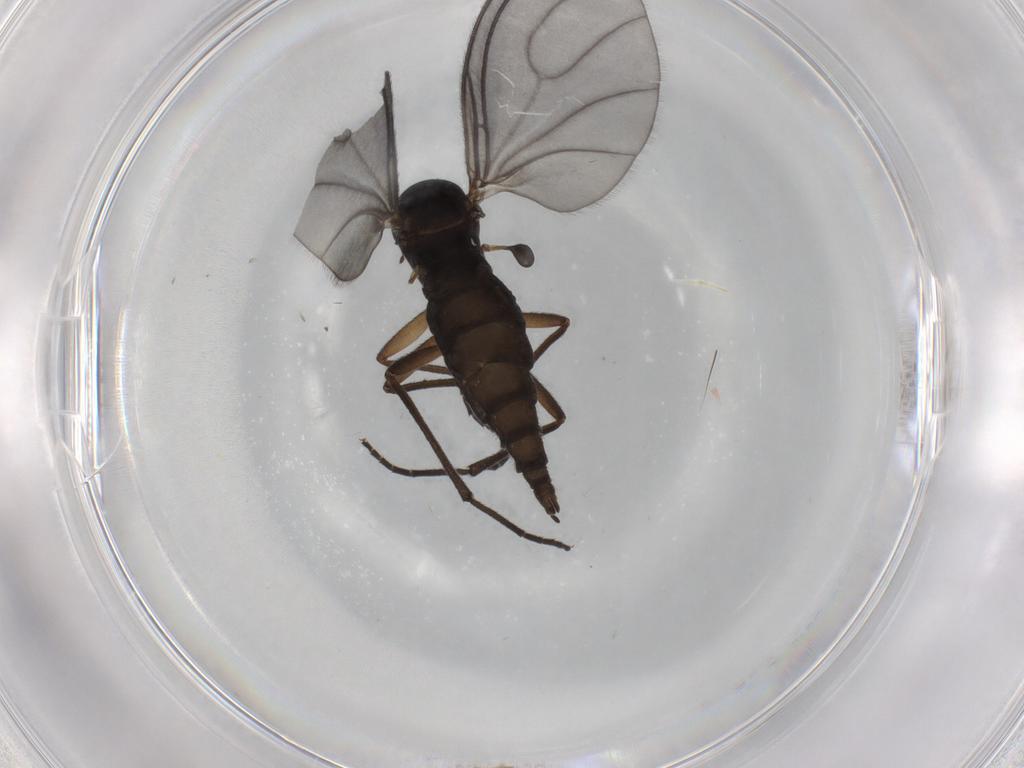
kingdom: Animalia
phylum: Arthropoda
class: Insecta
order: Diptera
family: Sciaridae
